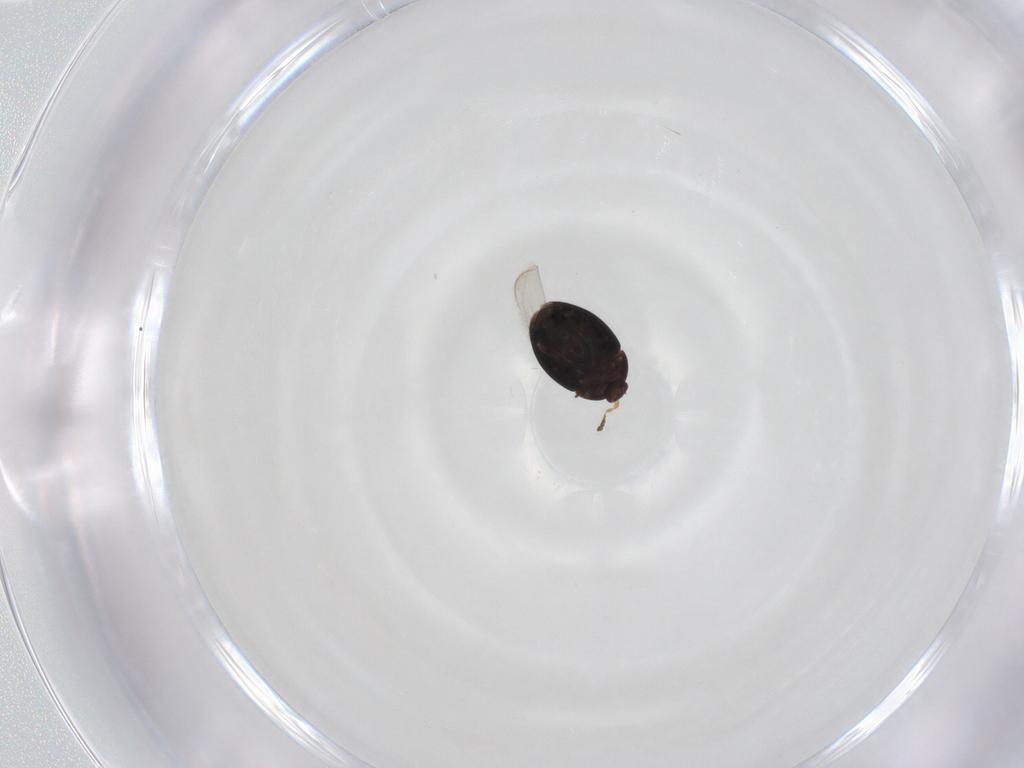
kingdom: Animalia
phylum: Arthropoda
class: Insecta
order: Coleoptera
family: Corylophidae
